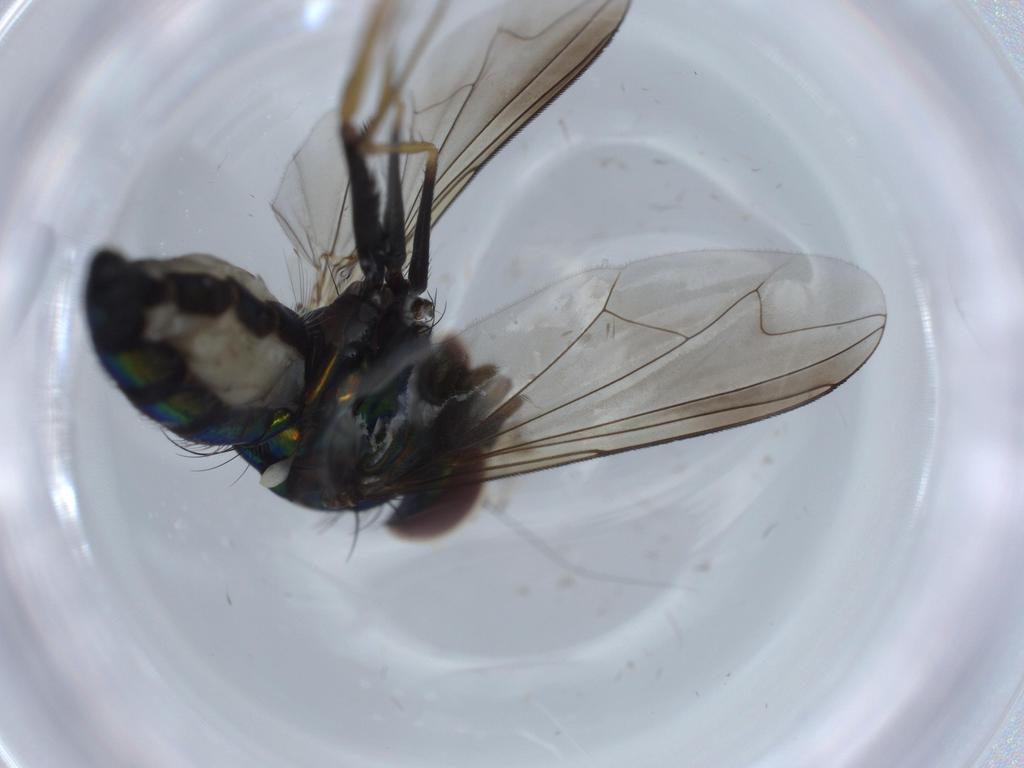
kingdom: Animalia
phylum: Arthropoda
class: Insecta
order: Diptera
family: Dolichopodidae
